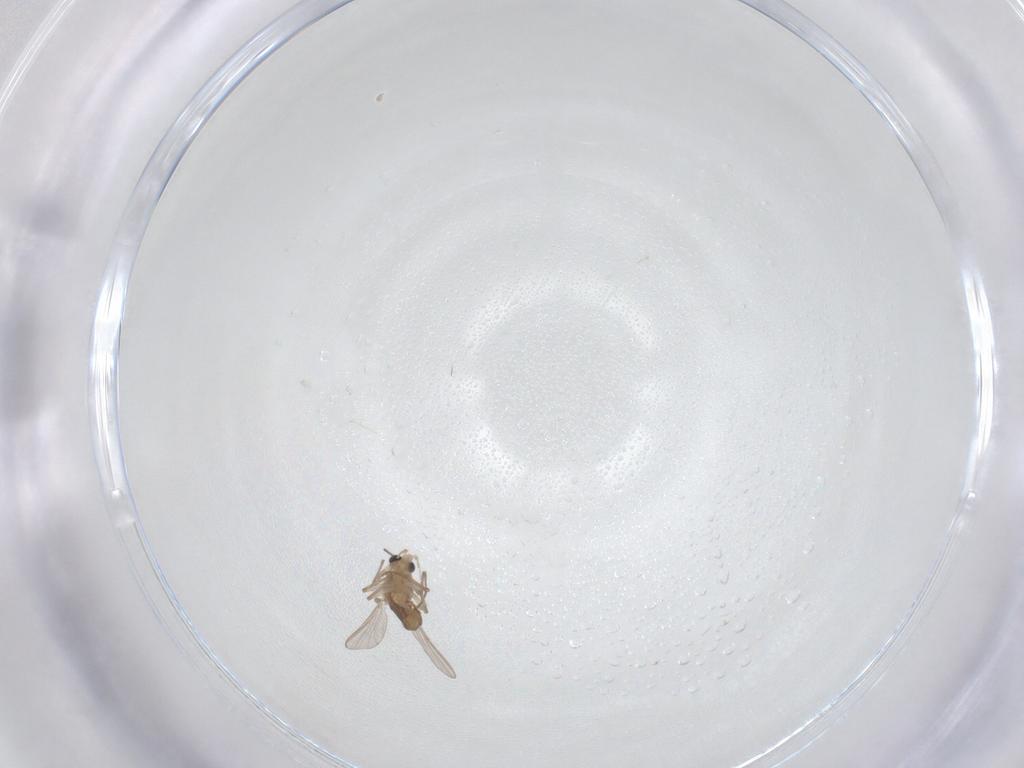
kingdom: Animalia
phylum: Arthropoda
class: Insecta
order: Diptera
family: Chironomidae
